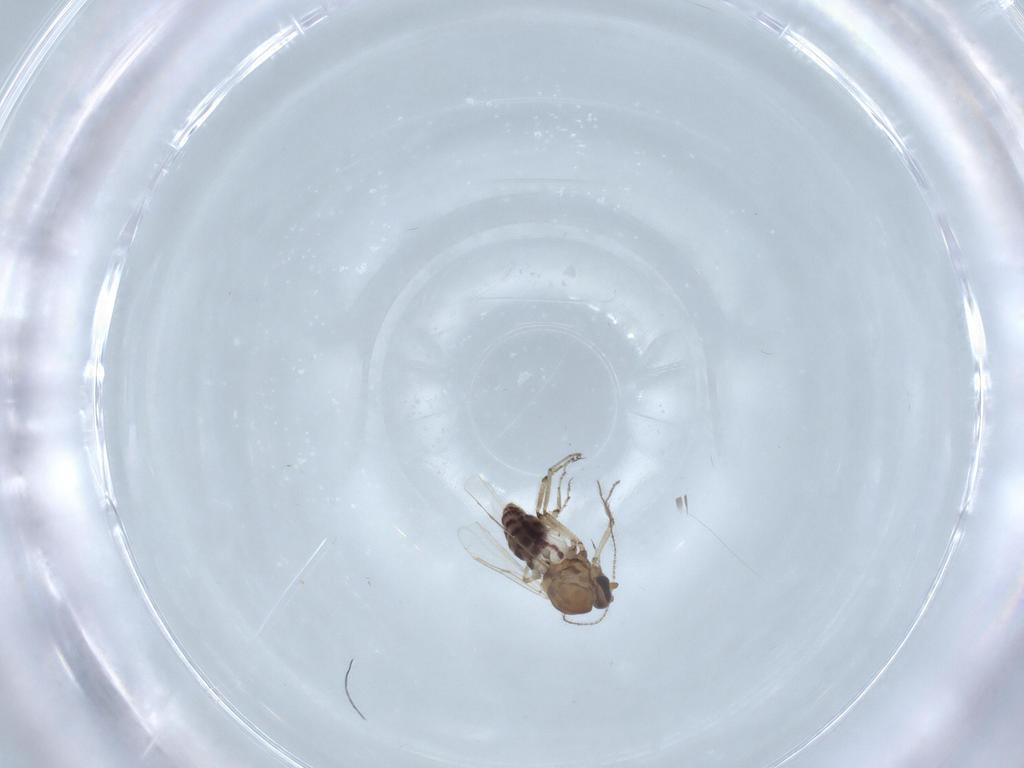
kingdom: Animalia
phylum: Arthropoda
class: Insecta
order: Diptera
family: Ceratopogonidae
